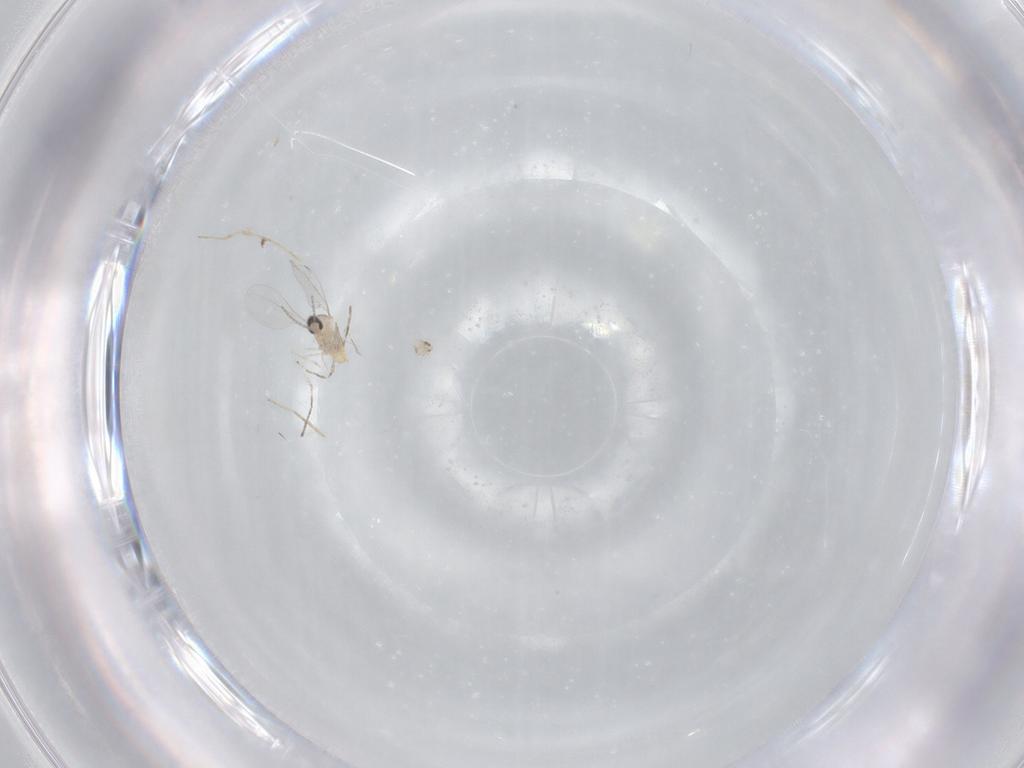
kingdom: Animalia
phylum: Arthropoda
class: Insecta
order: Diptera
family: Cecidomyiidae
